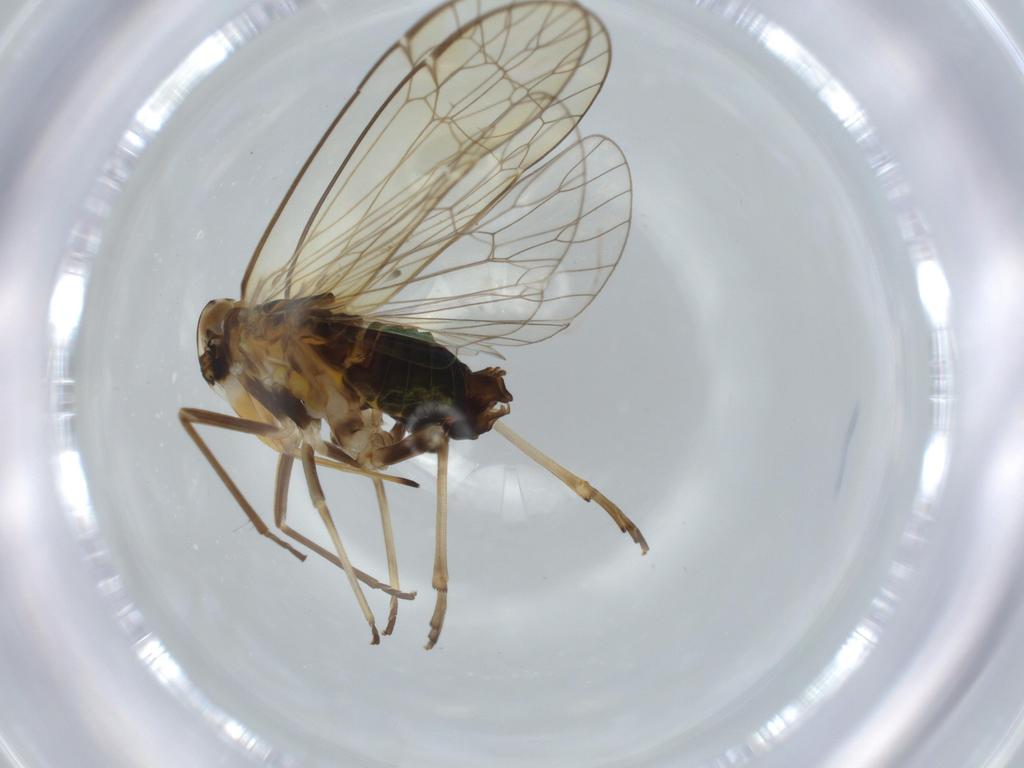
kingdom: Animalia
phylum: Arthropoda
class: Insecta
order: Hemiptera
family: Kinnaridae
